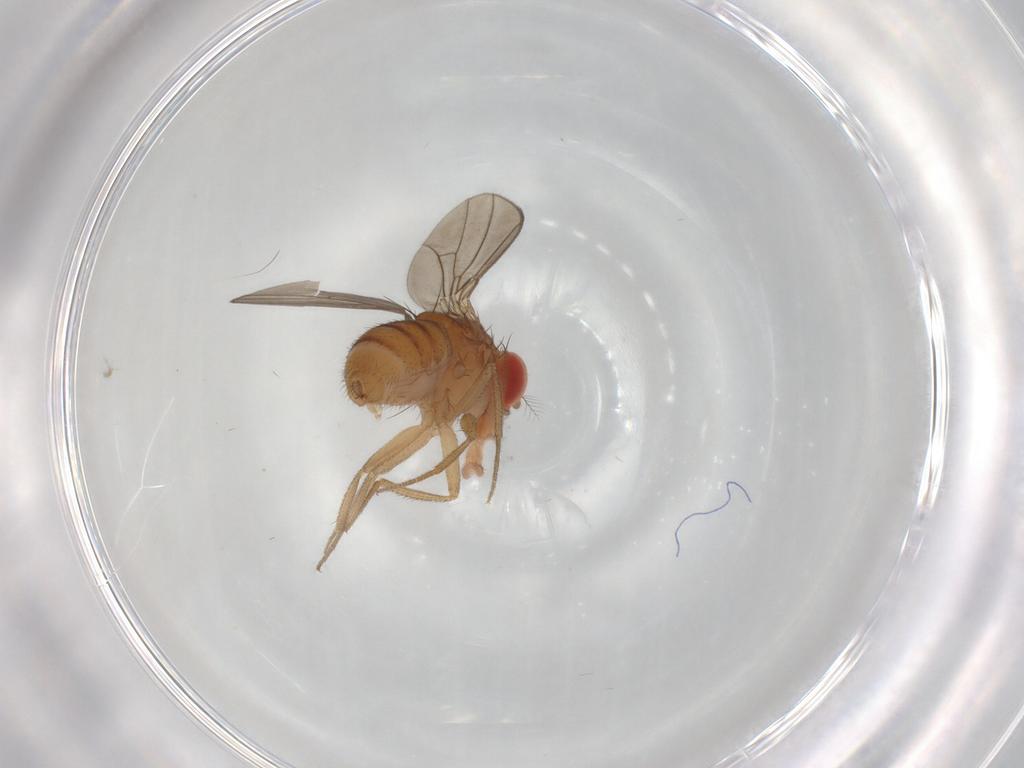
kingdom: Animalia
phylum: Arthropoda
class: Insecta
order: Diptera
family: Drosophilidae
